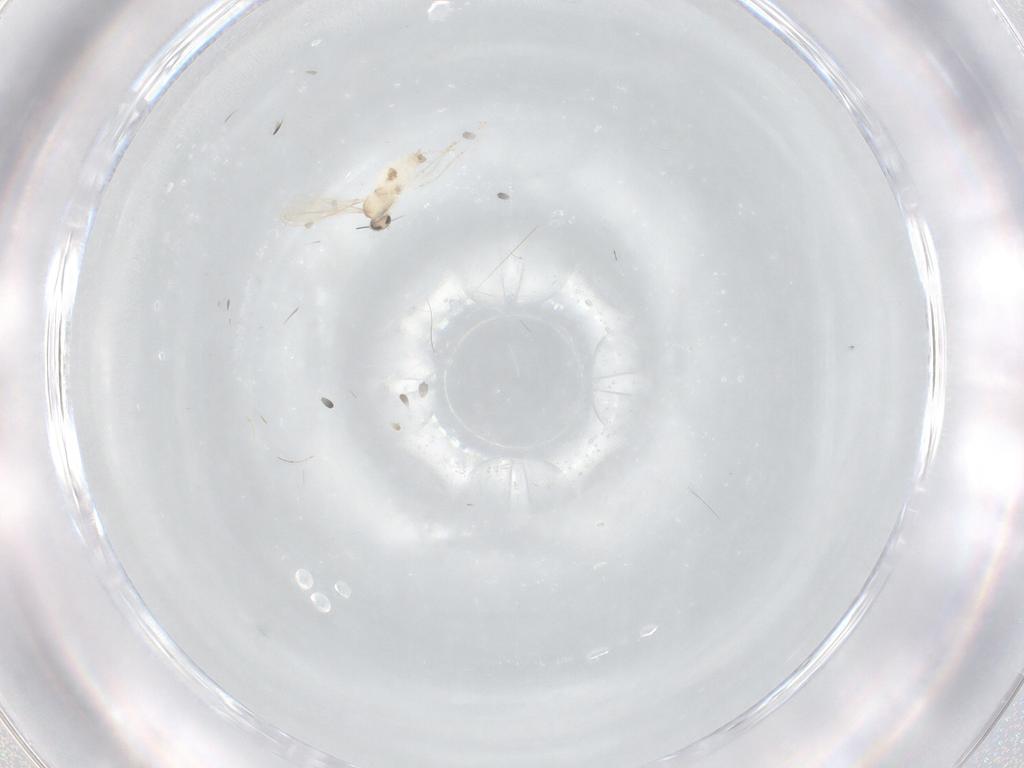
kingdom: Animalia
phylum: Arthropoda
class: Insecta
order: Diptera
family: Cecidomyiidae
